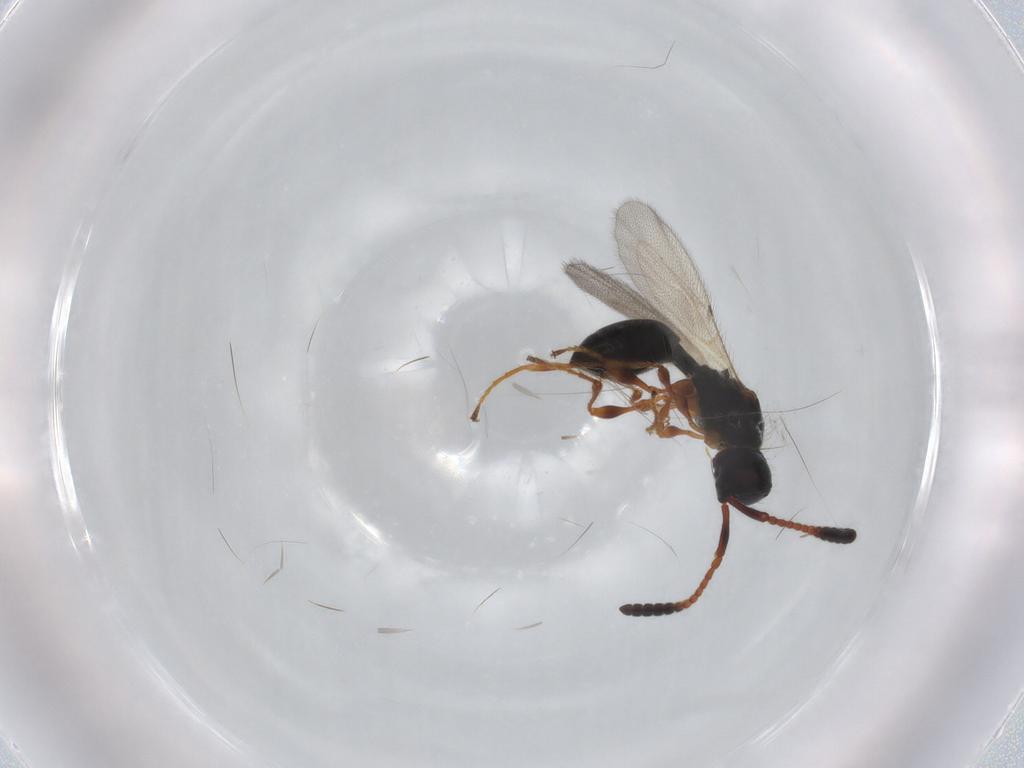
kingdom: Animalia
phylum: Arthropoda
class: Insecta
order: Hymenoptera
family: Diapriidae
